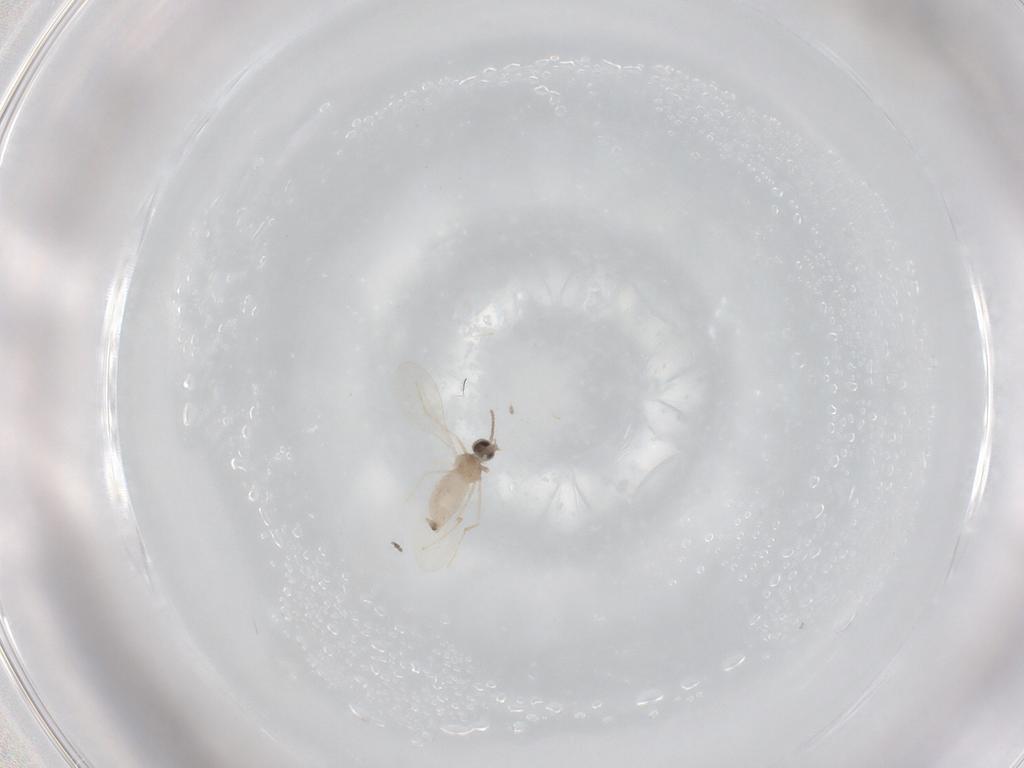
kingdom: Animalia
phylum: Arthropoda
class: Insecta
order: Diptera
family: Cecidomyiidae
